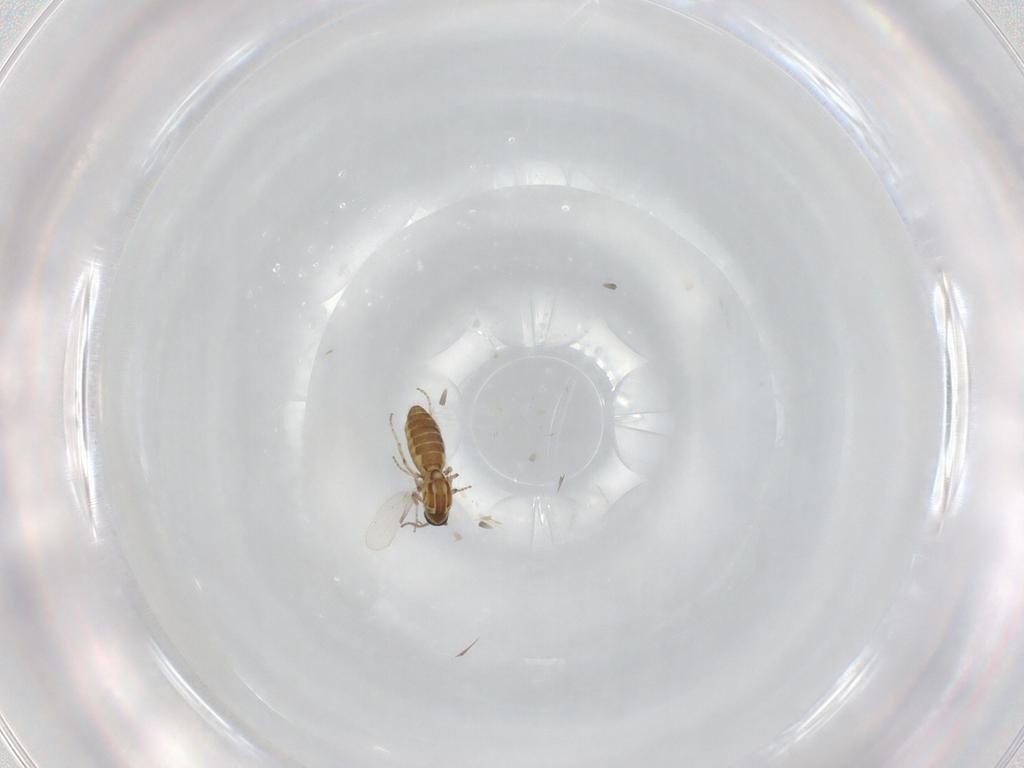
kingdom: Animalia
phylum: Arthropoda
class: Insecta
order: Diptera
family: Ceratopogonidae
